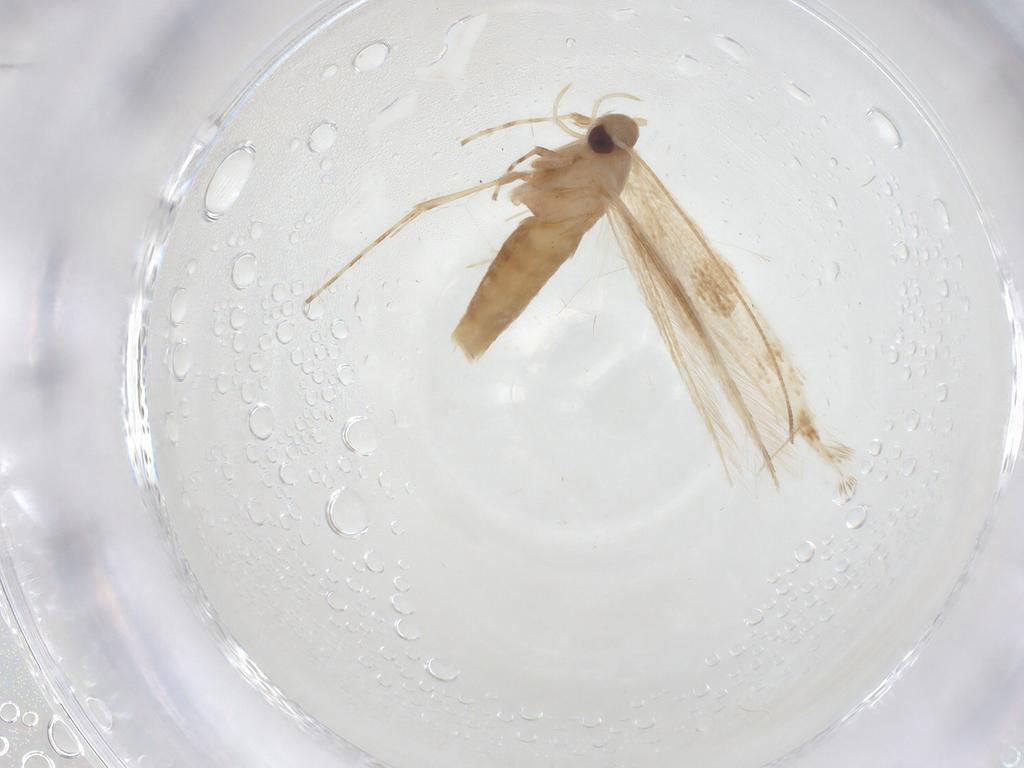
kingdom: Animalia
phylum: Arthropoda
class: Insecta
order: Lepidoptera
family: Gracillariidae
